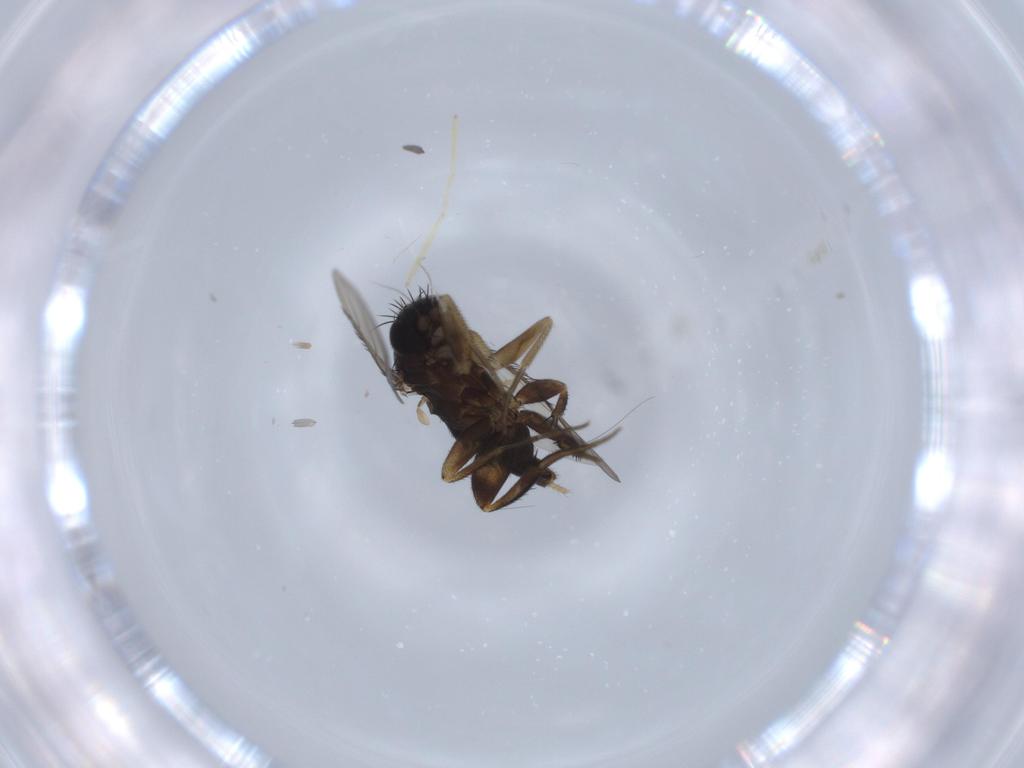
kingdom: Animalia
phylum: Arthropoda
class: Insecta
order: Diptera
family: Chironomidae
